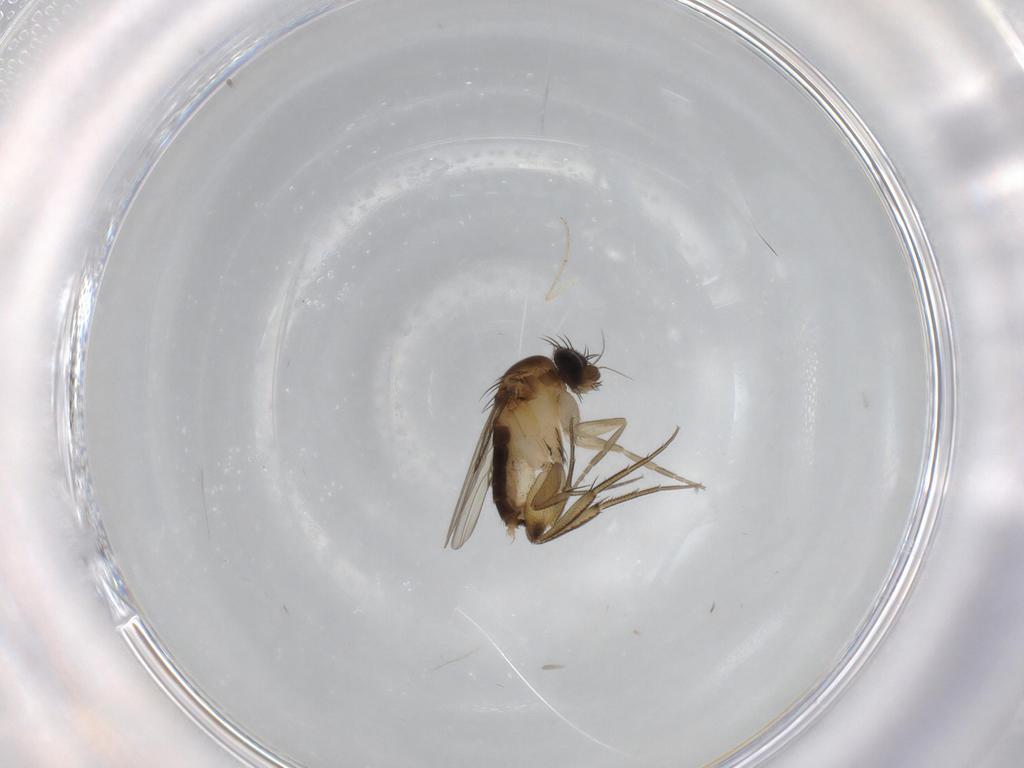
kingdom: Animalia
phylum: Arthropoda
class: Insecta
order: Diptera
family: Phoridae
